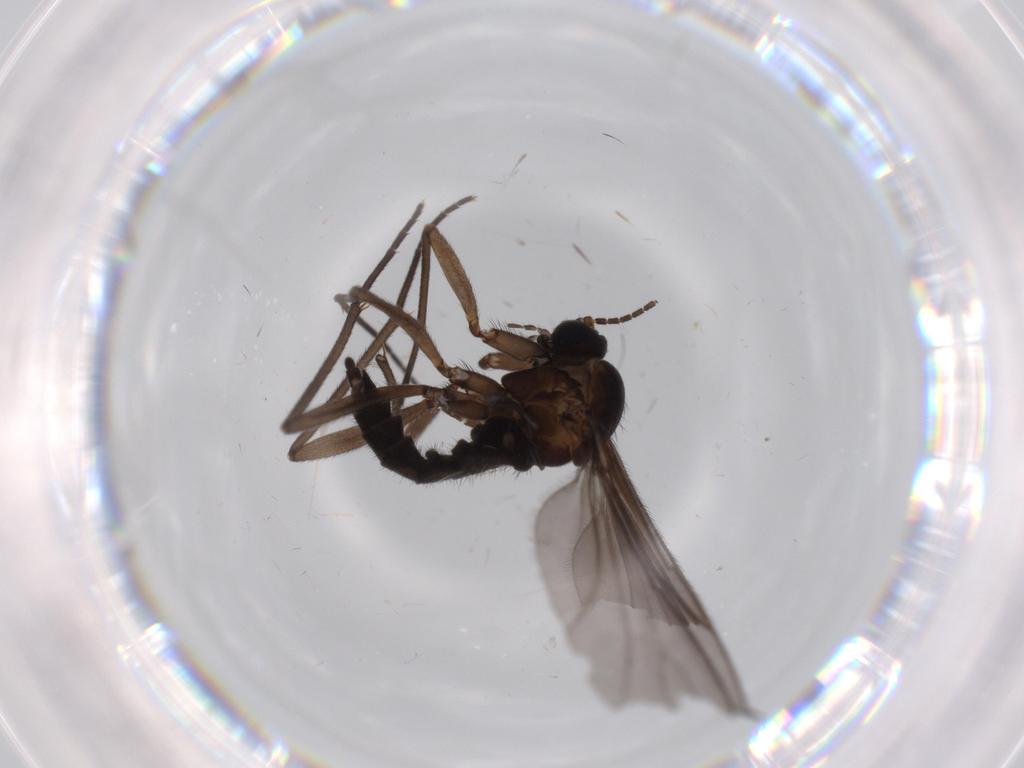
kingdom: Animalia
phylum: Arthropoda
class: Insecta
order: Diptera
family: Sciaridae
